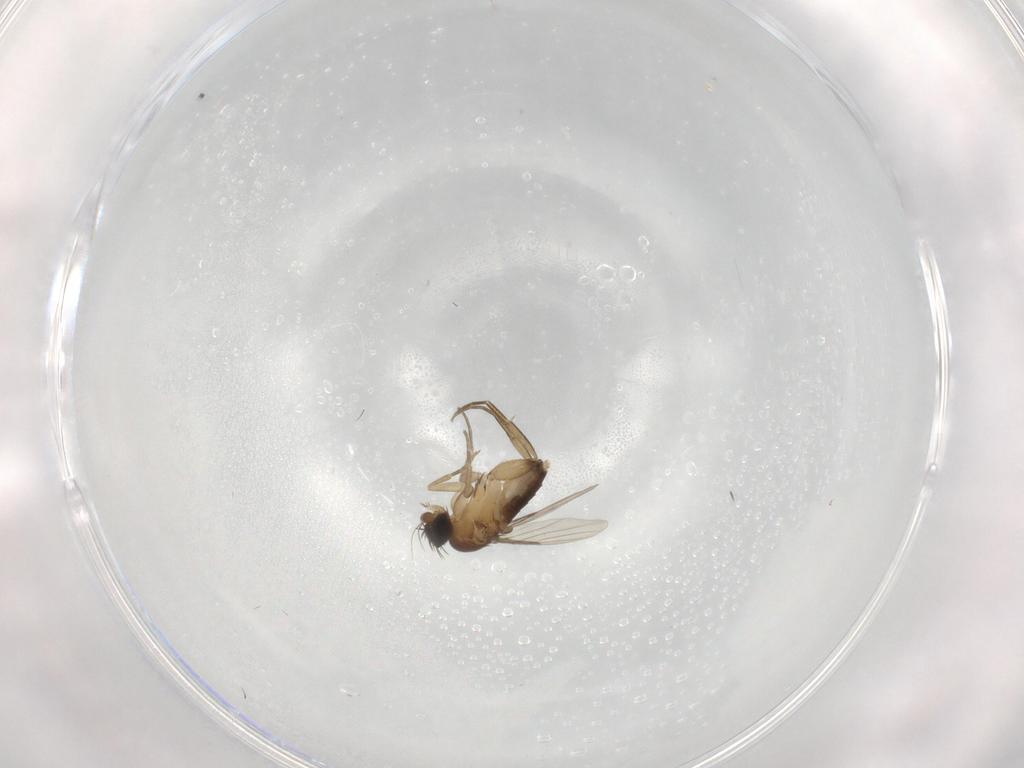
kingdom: Animalia
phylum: Arthropoda
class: Insecta
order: Diptera
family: Phoridae
